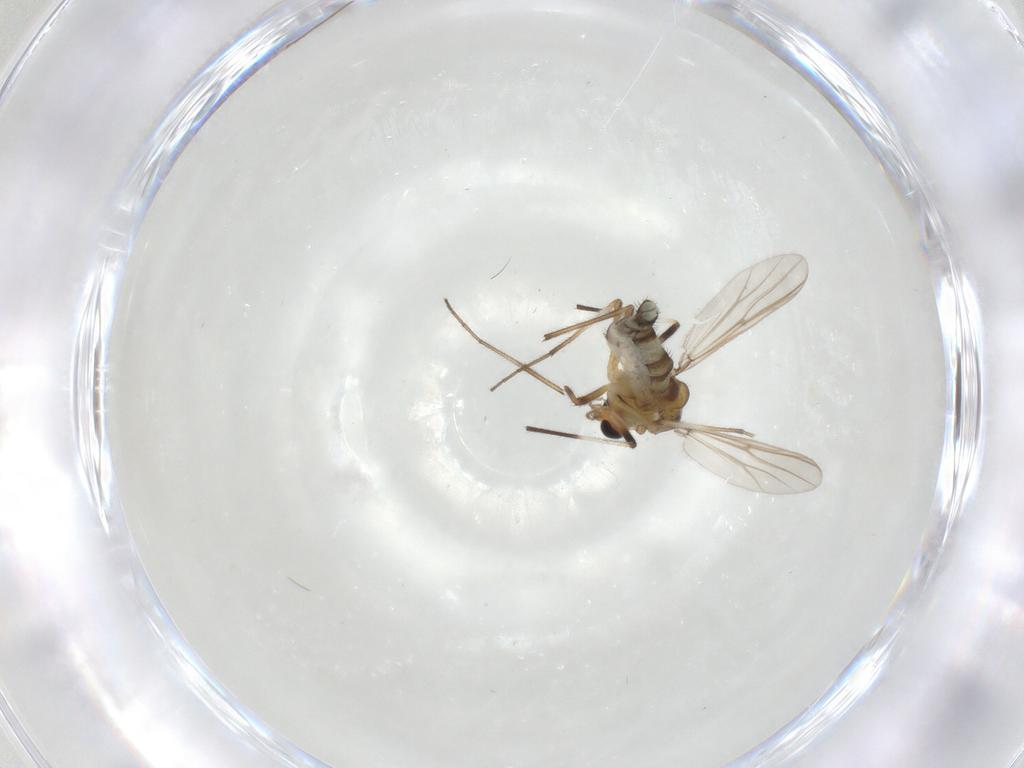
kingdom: Animalia
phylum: Arthropoda
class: Insecta
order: Diptera
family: Chironomidae
